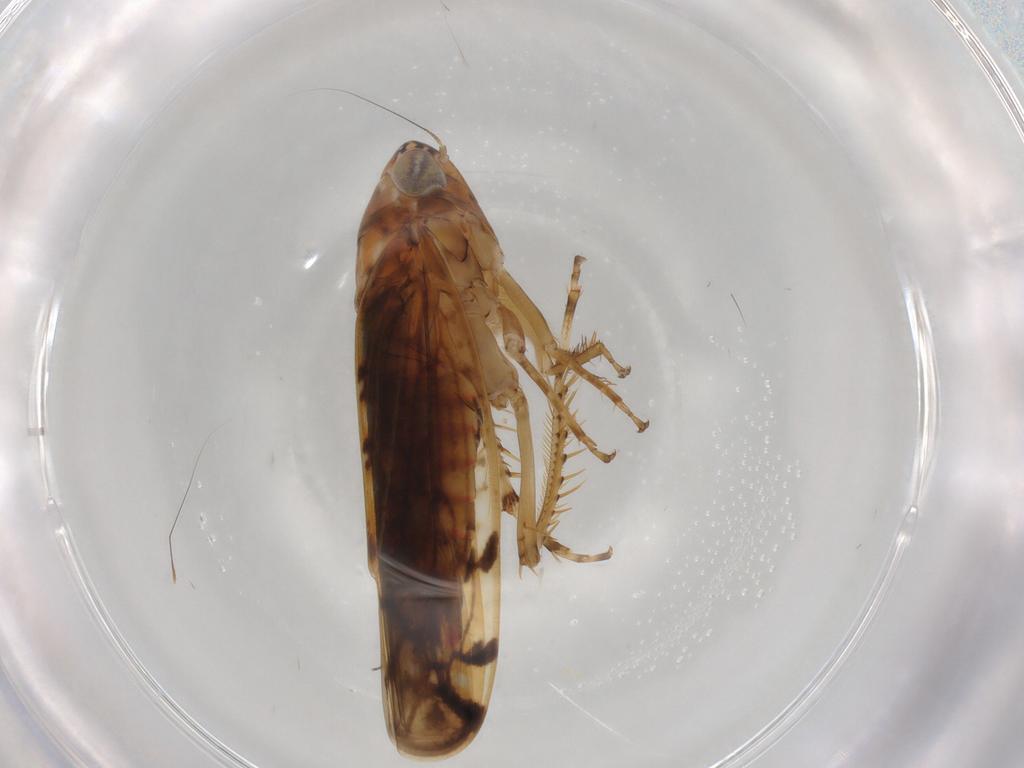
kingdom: Animalia
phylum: Arthropoda
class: Insecta
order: Hemiptera
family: Cicadellidae
